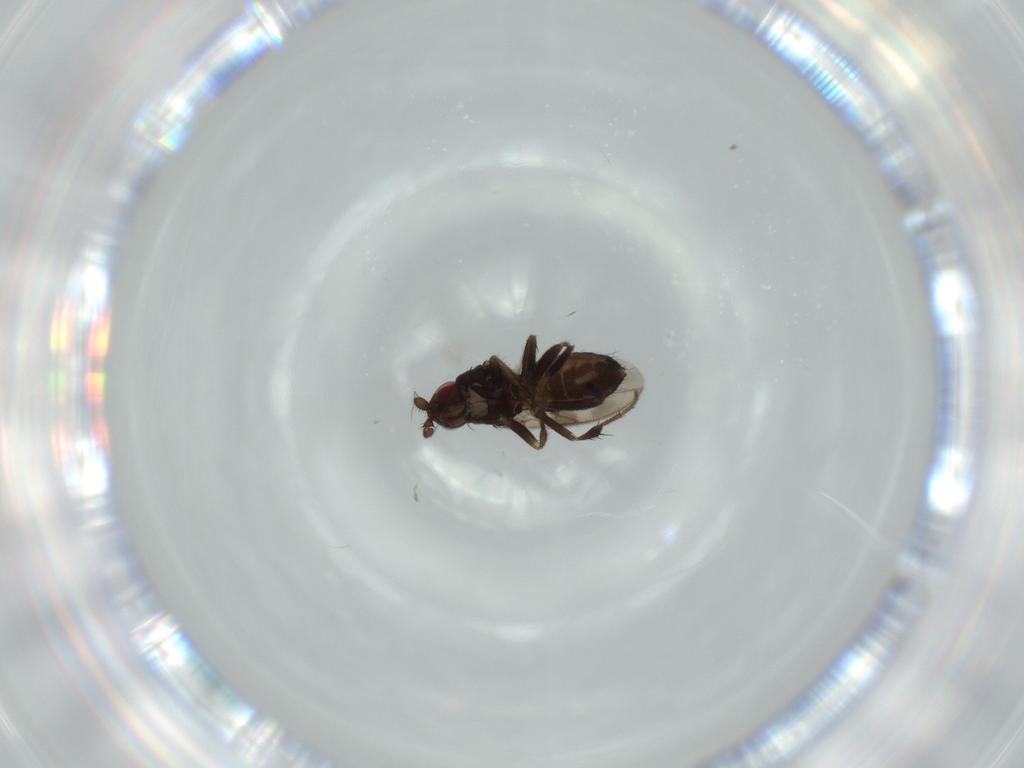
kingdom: Animalia
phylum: Arthropoda
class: Insecta
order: Diptera
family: Sphaeroceridae
